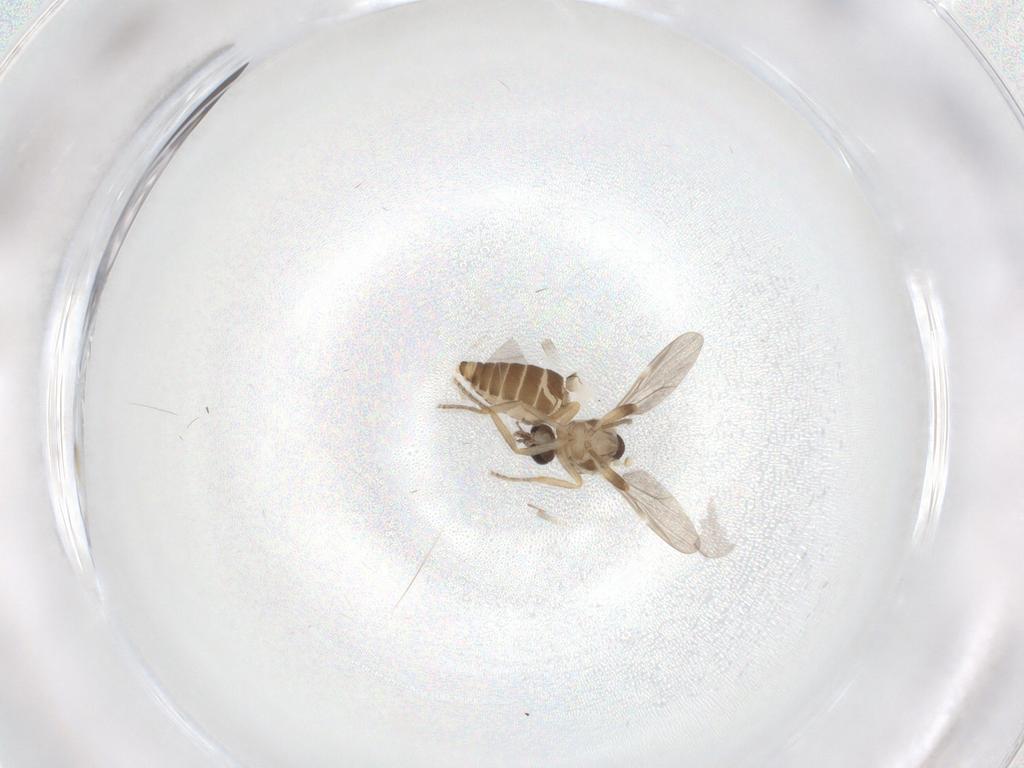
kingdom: Animalia
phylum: Arthropoda
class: Insecta
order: Diptera
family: Ceratopogonidae
